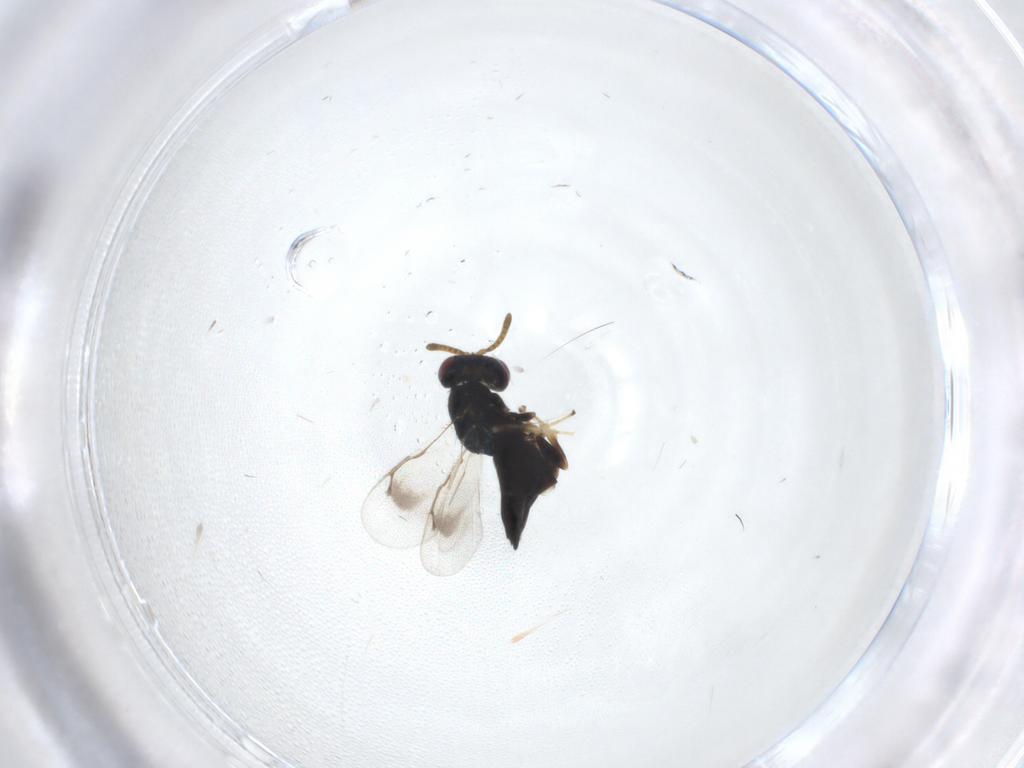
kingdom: Animalia
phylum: Arthropoda
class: Insecta
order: Hymenoptera
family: Pteromalidae
